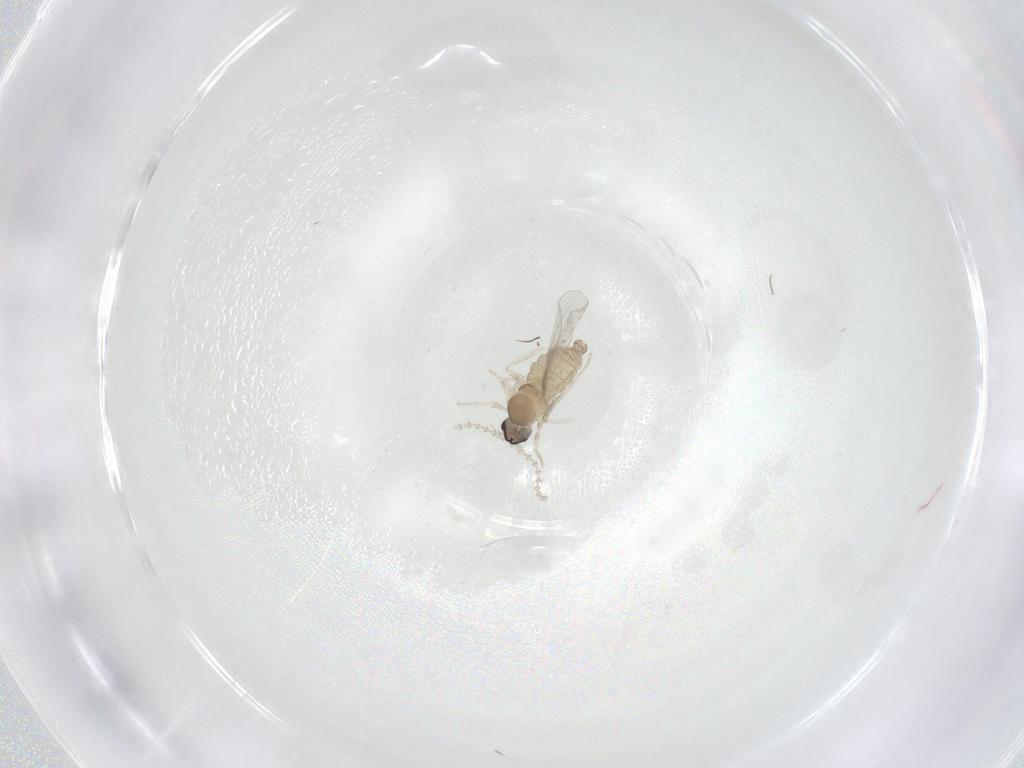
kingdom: Animalia
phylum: Arthropoda
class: Insecta
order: Diptera
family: Cecidomyiidae
